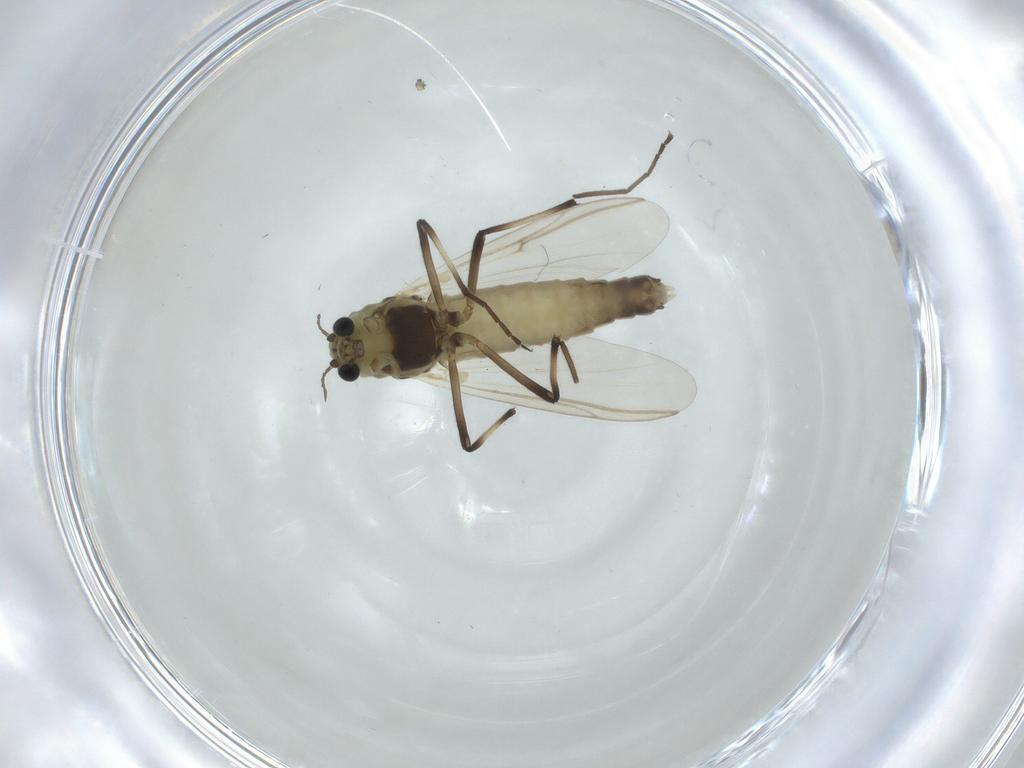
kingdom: Animalia
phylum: Arthropoda
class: Insecta
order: Diptera
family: Chironomidae
